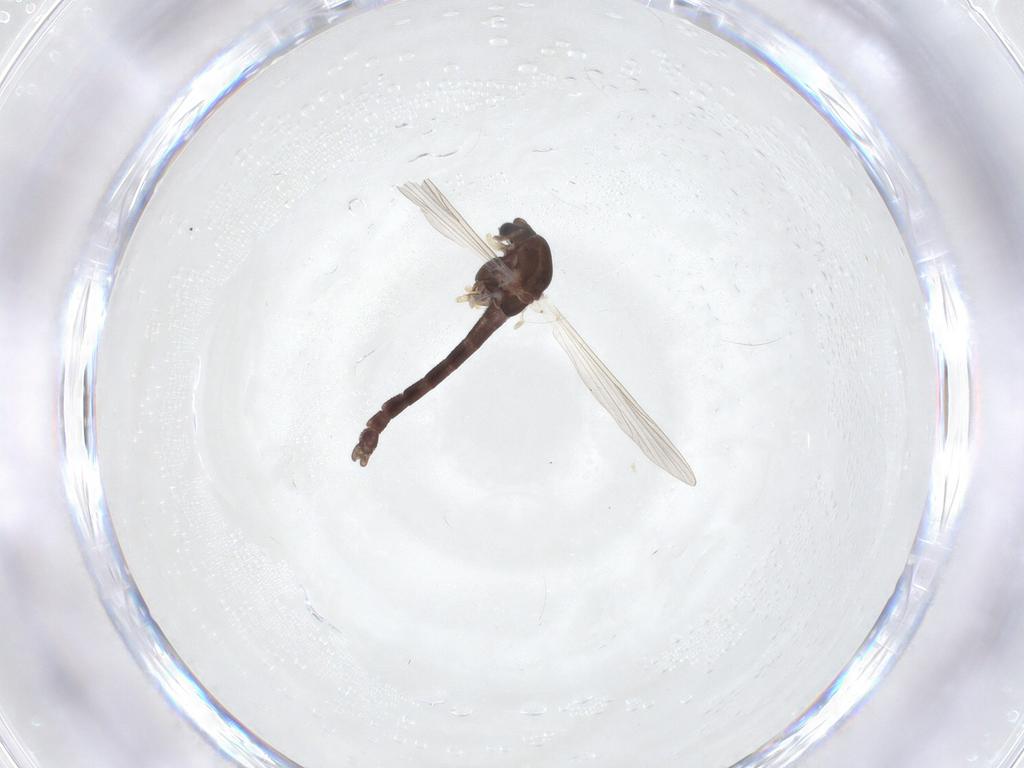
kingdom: Animalia
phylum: Arthropoda
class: Insecta
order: Diptera
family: Chironomidae
